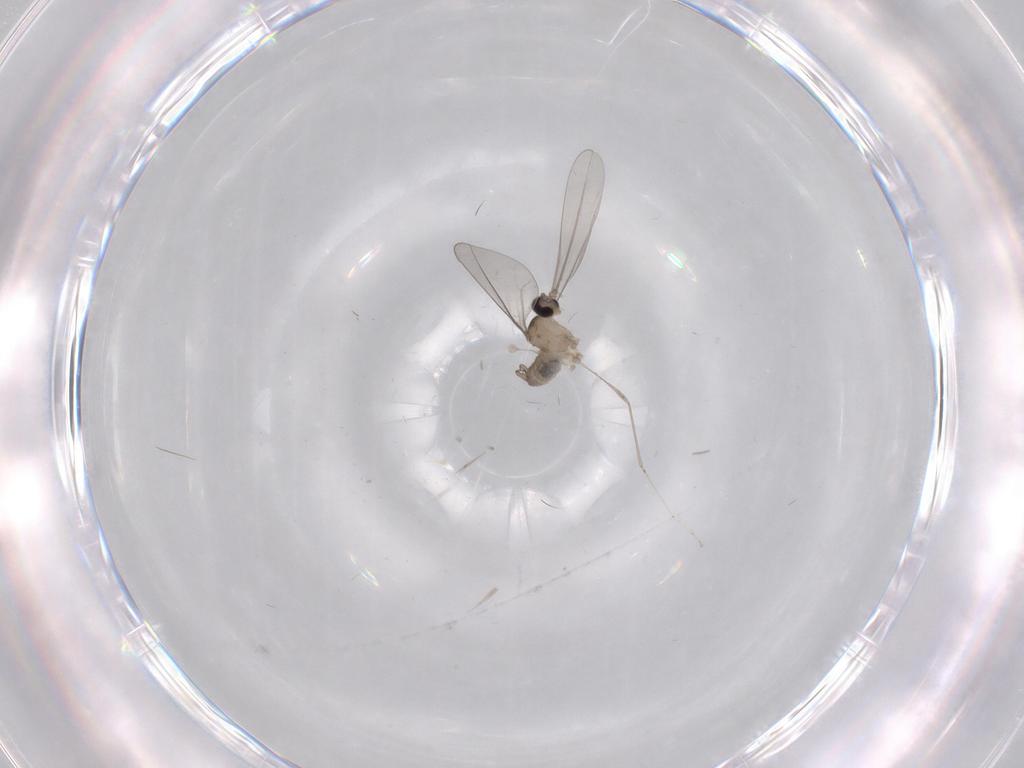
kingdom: Animalia
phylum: Arthropoda
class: Insecta
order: Diptera
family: Cecidomyiidae
